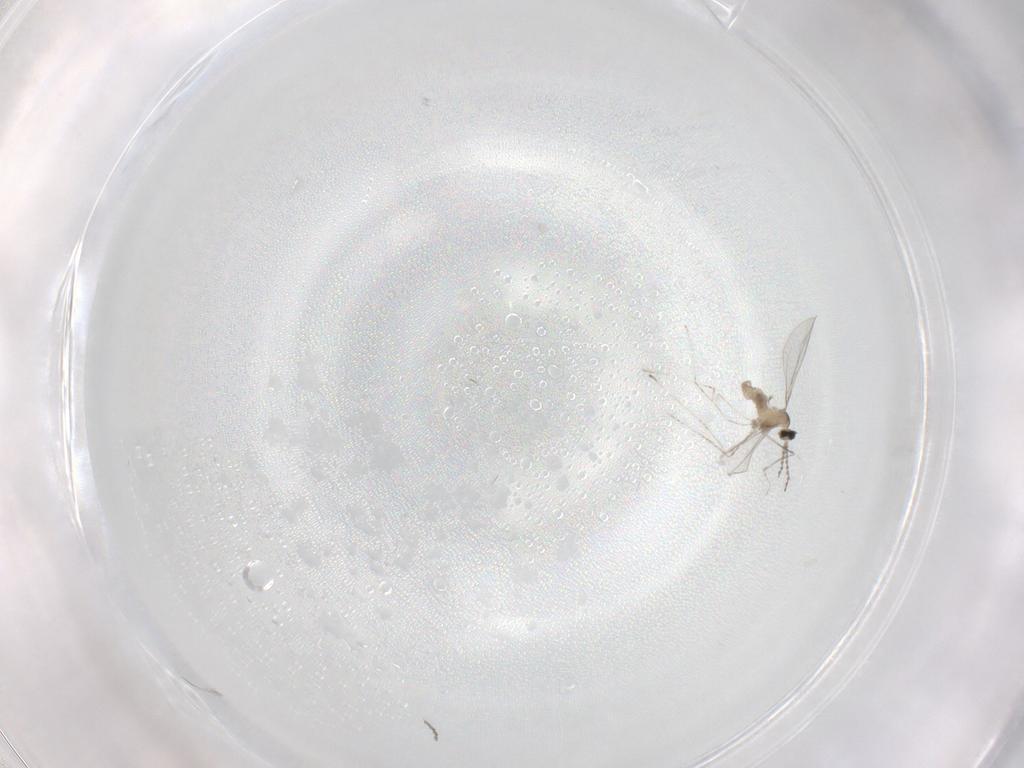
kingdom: Animalia
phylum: Arthropoda
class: Insecta
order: Diptera
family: Cecidomyiidae
